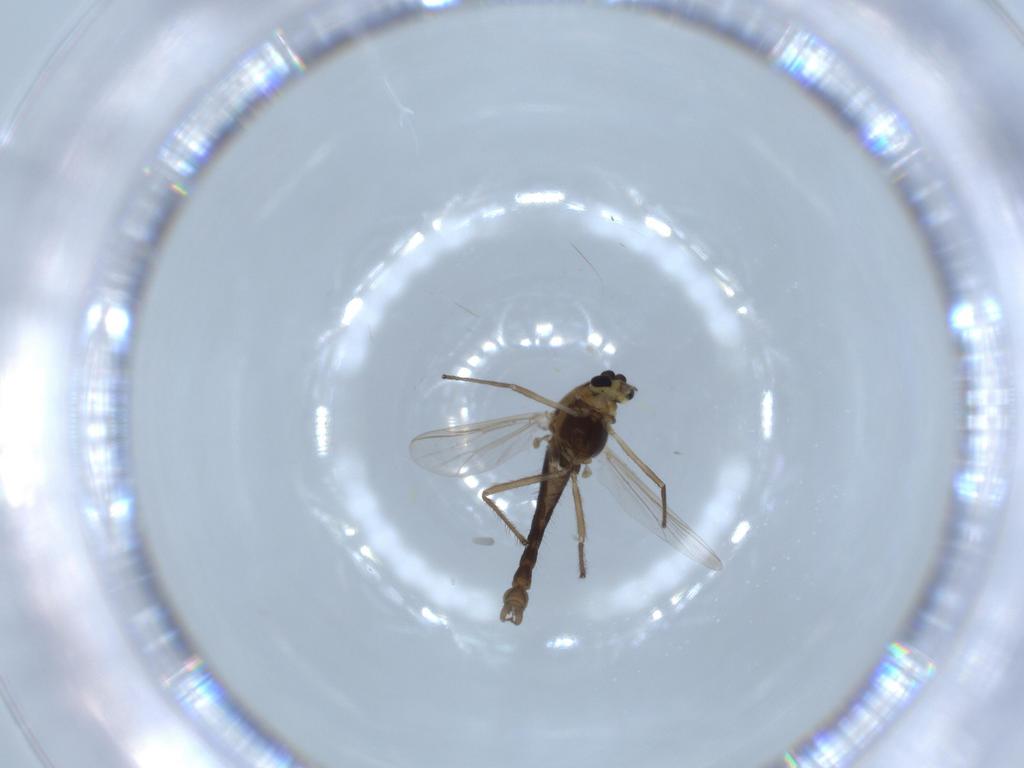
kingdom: Animalia
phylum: Arthropoda
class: Insecta
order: Diptera
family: Chironomidae
